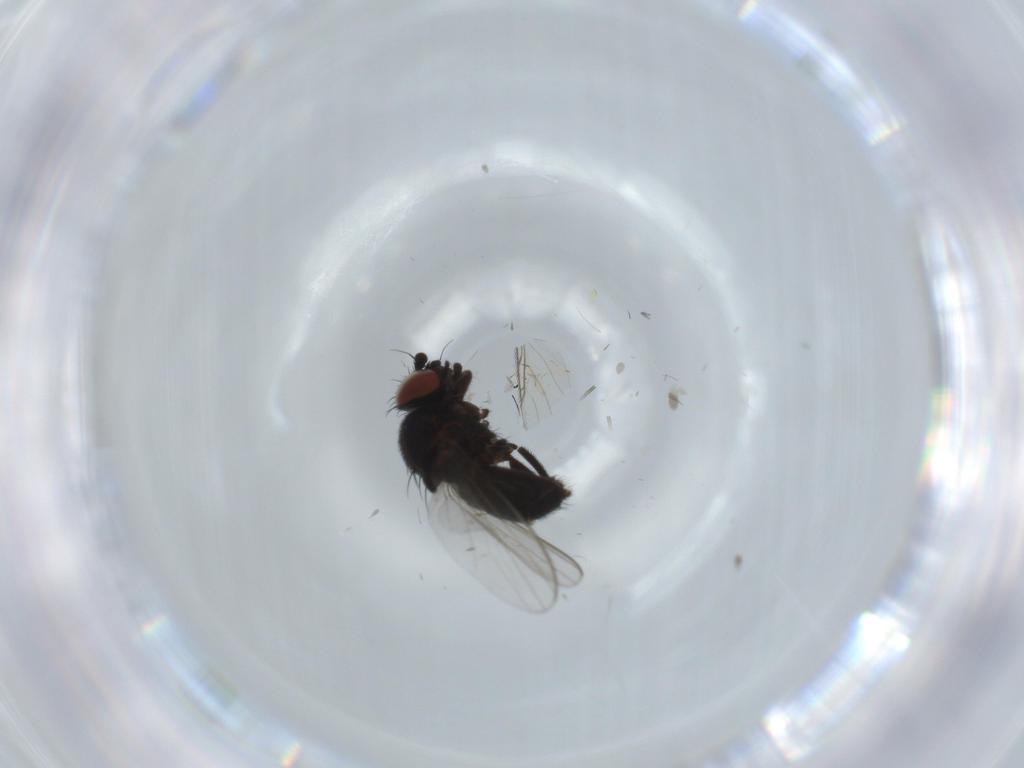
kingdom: Animalia
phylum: Arthropoda
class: Insecta
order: Diptera
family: Milichiidae
